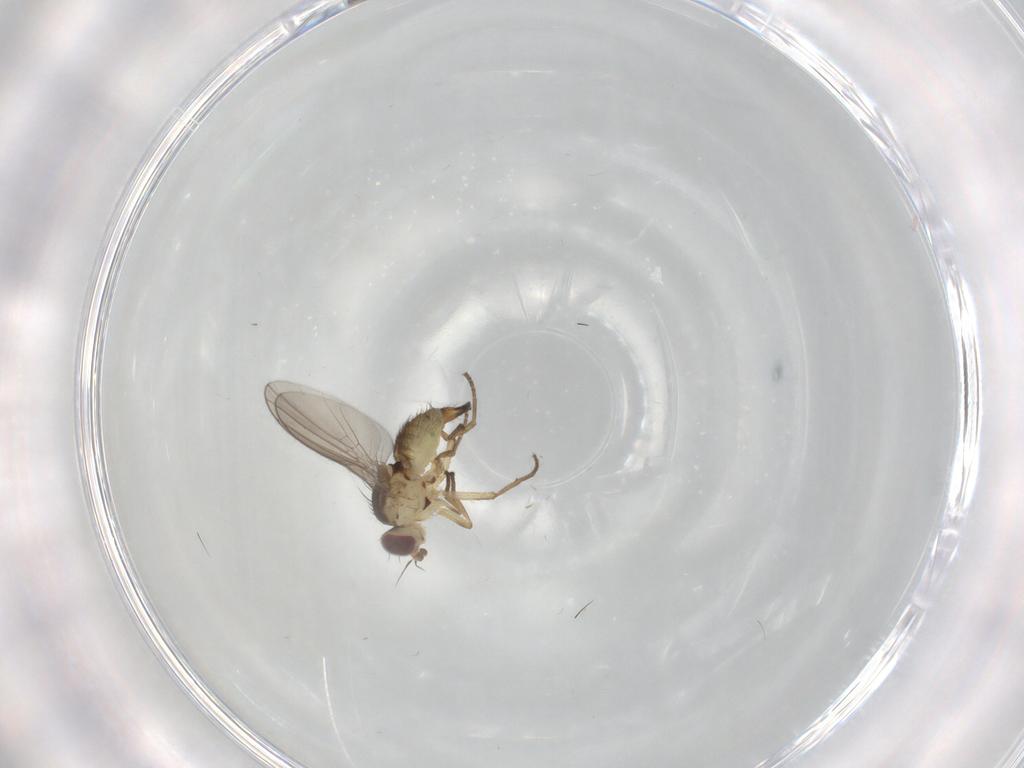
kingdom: Animalia
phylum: Arthropoda
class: Insecta
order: Diptera
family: Agromyzidae
